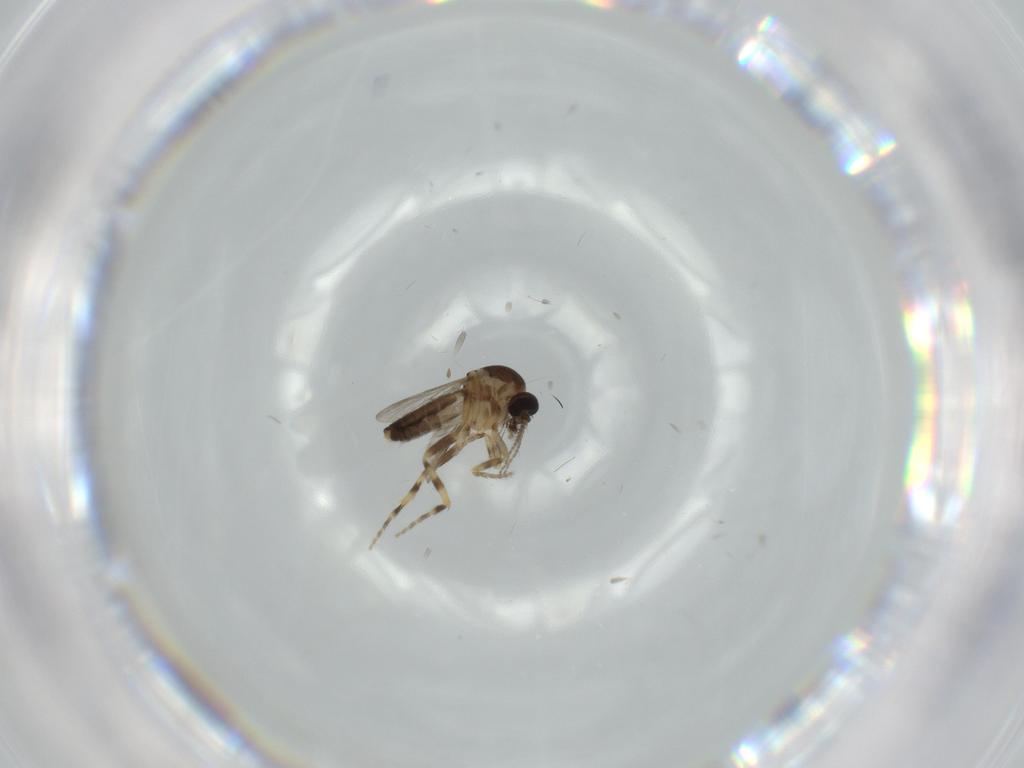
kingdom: Animalia
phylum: Arthropoda
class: Insecta
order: Diptera
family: Cecidomyiidae
